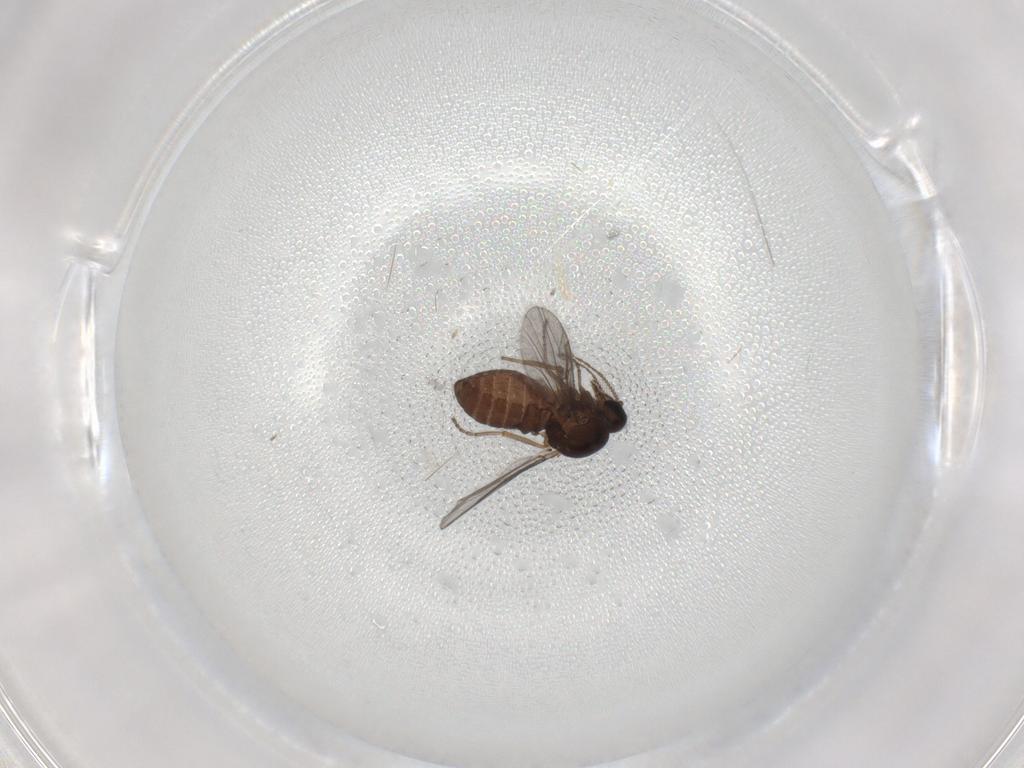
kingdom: Animalia
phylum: Arthropoda
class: Insecta
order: Diptera
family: Ceratopogonidae
